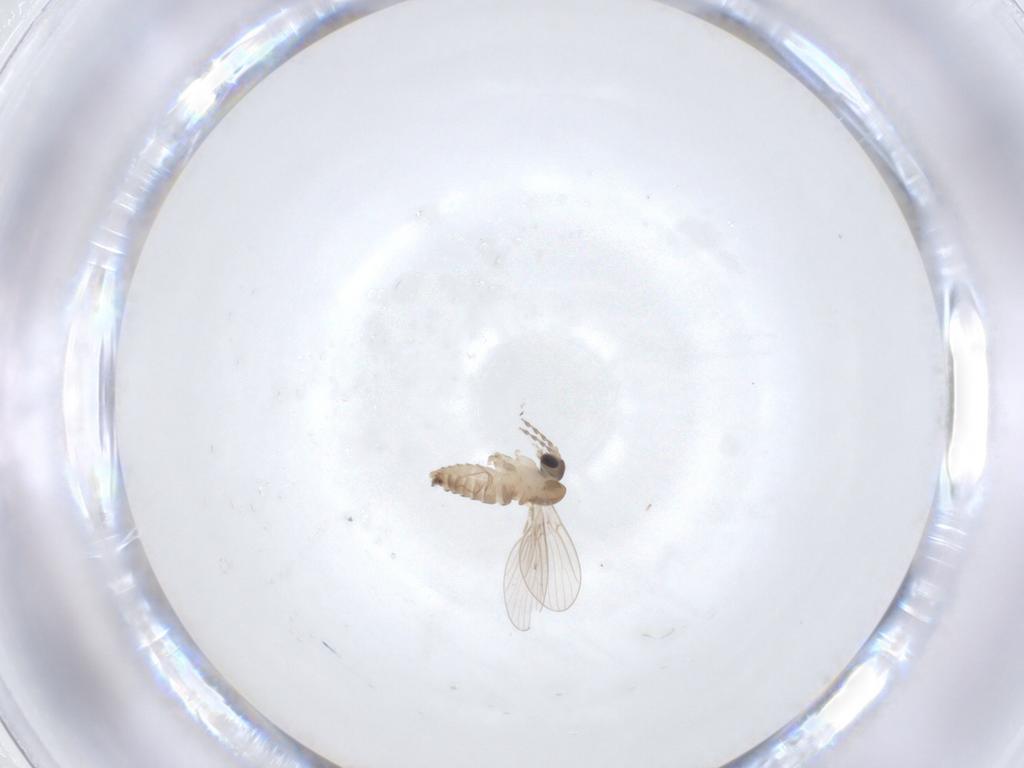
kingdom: Animalia
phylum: Arthropoda
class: Insecta
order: Diptera
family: Psychodidae
